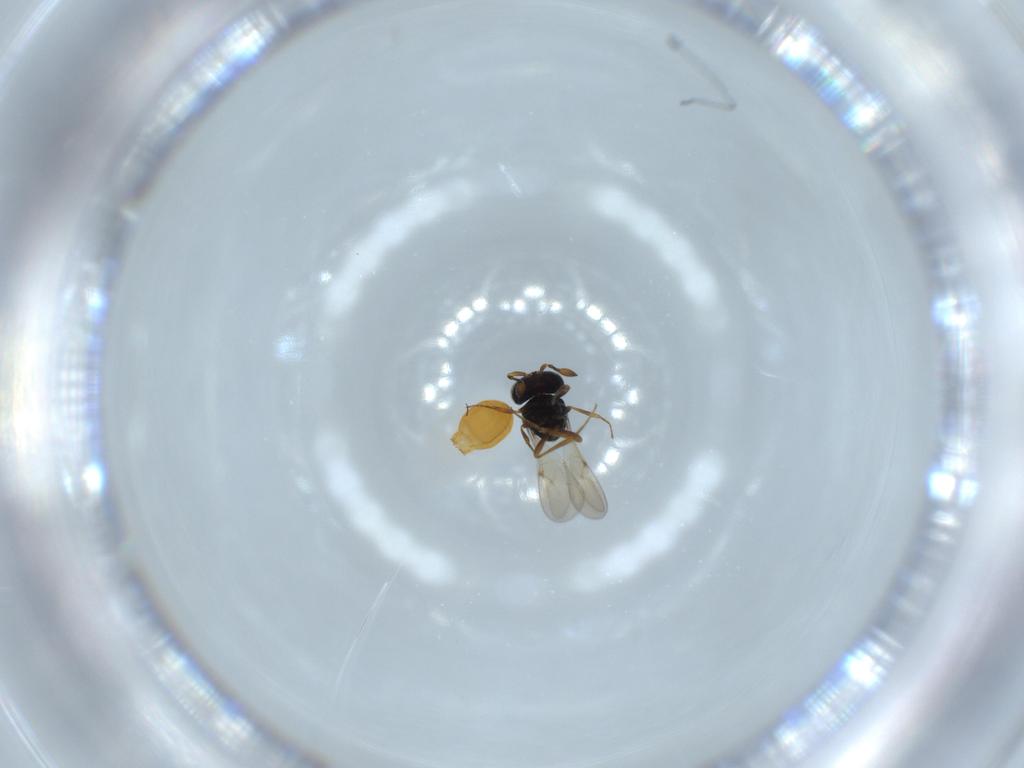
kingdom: Animalia
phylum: Arthropoda
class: Insecta
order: Hymenoptera
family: Scelionidae
